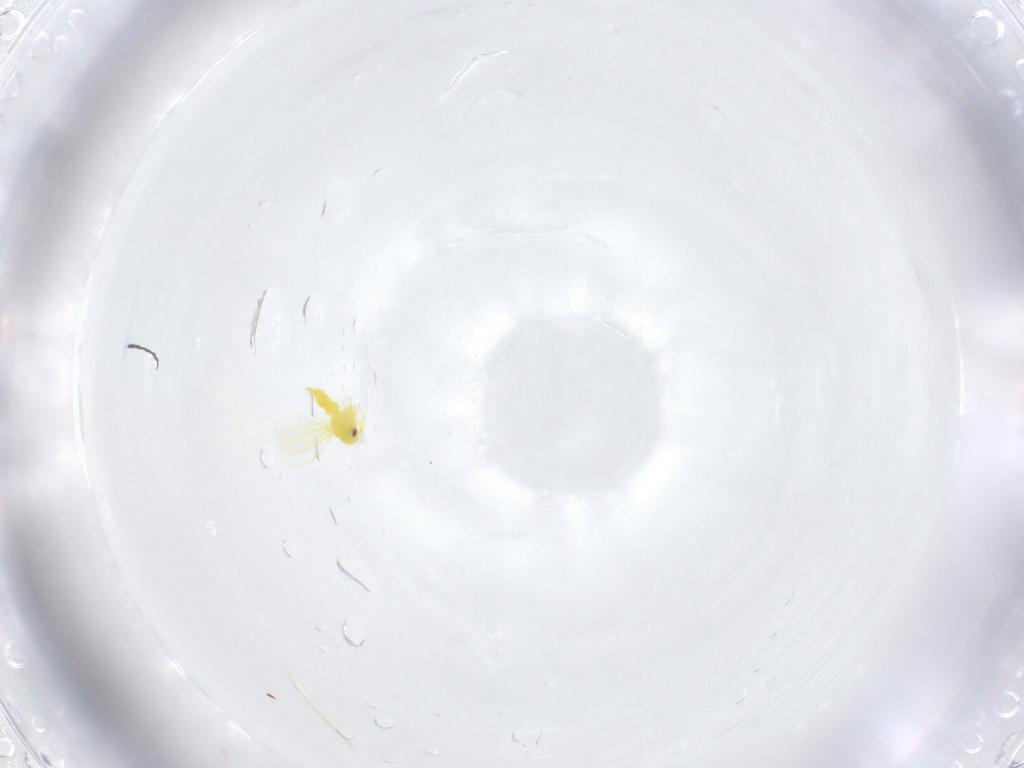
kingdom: Animalia
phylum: Arthropoda
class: Insecta
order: Hemiptera
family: Aleyrodidae
